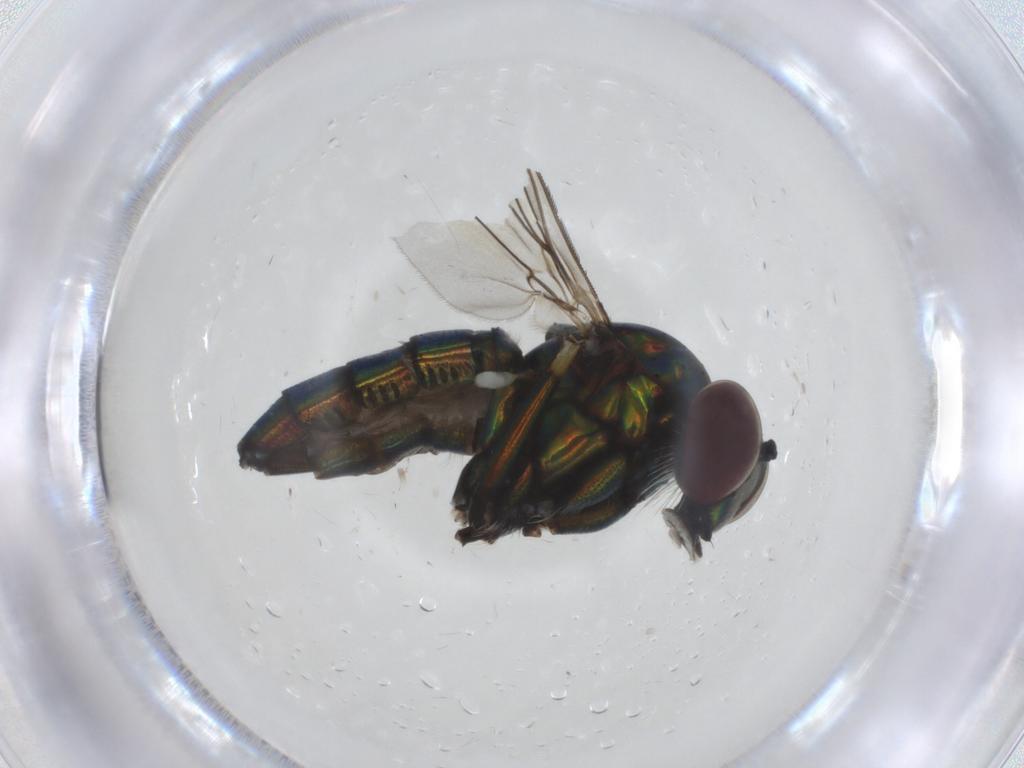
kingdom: Animalia
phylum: Arthropoda
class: Insecta
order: Diptera
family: Dolichopodidae
